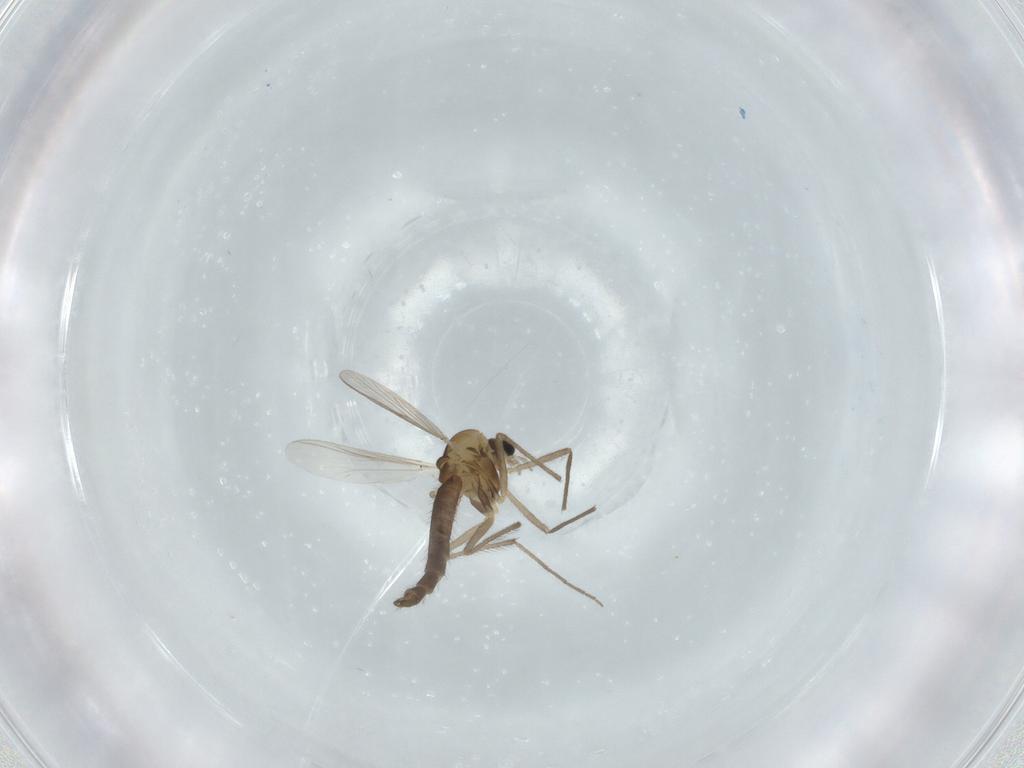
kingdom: Animalia
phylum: Arthropoda
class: Insecta
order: Diptera
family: Chironomidae
